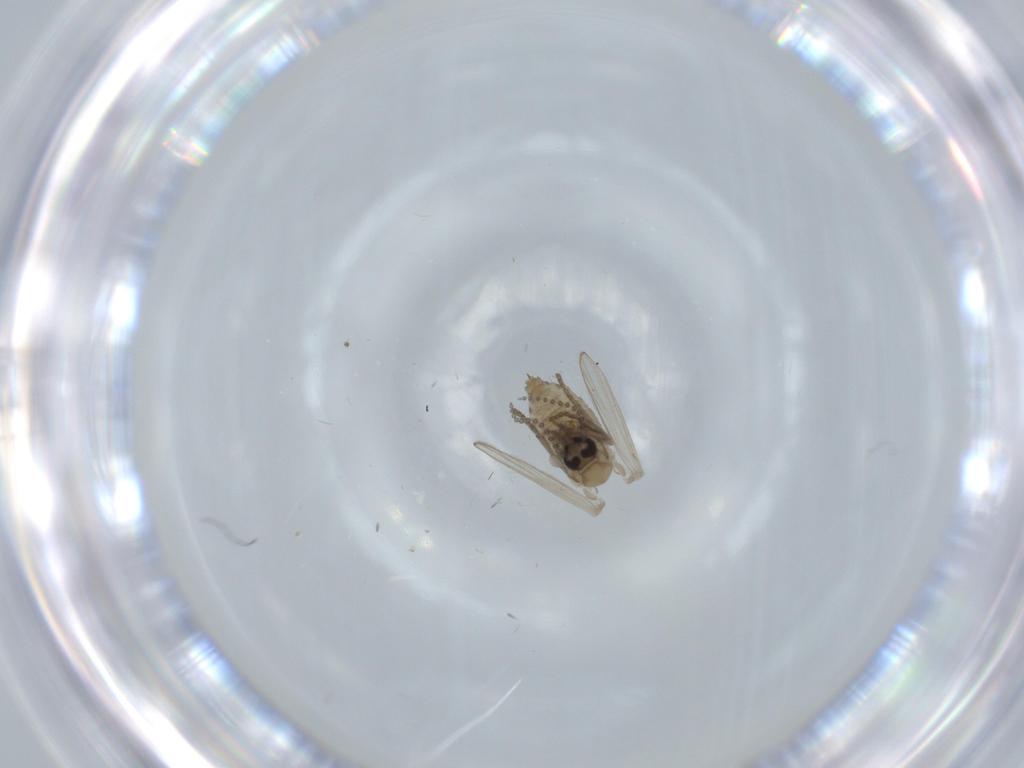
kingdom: Animalia
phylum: Arthropoda
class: Insecta
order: Diptera
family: Psychodidae
